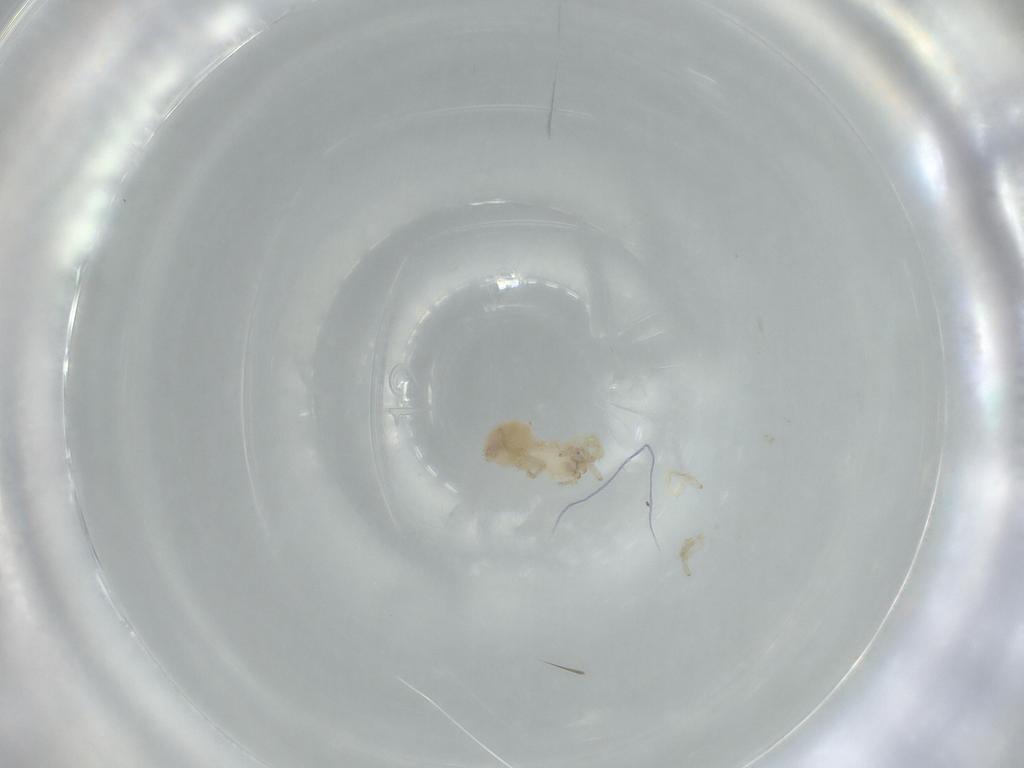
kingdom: Animalia
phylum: Arthropoda
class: Arachnida
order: Araneae
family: Oonopidae
